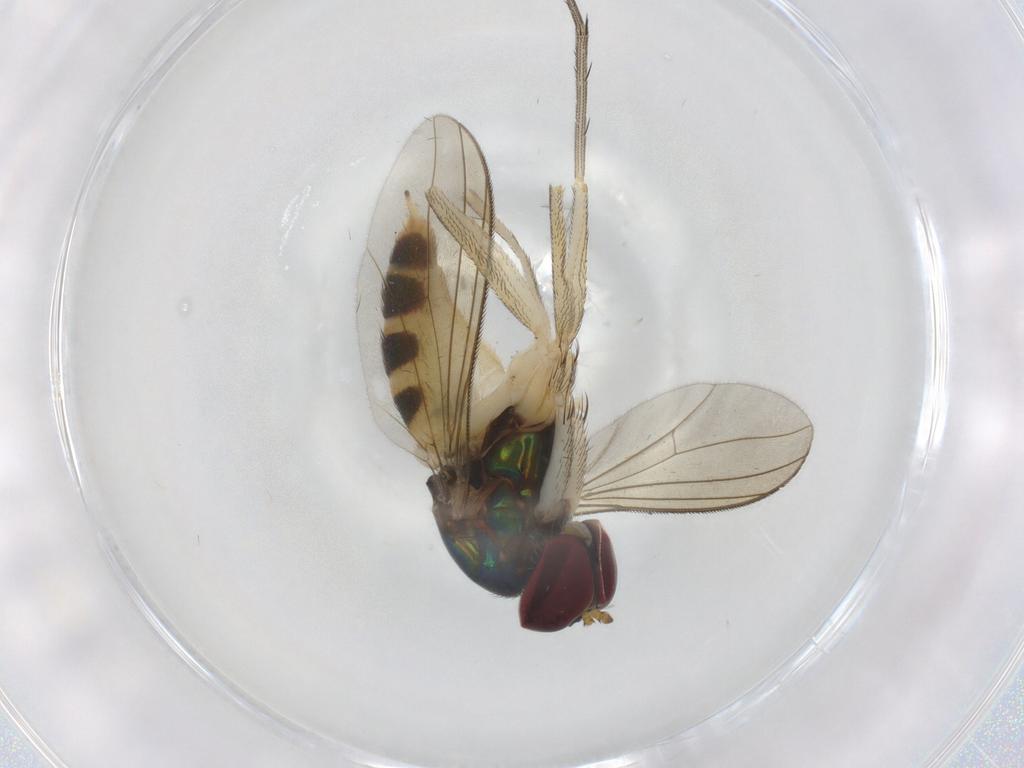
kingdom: Animalia
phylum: Arthropoda
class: Insecta
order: Diptera
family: Dolichopodidae
